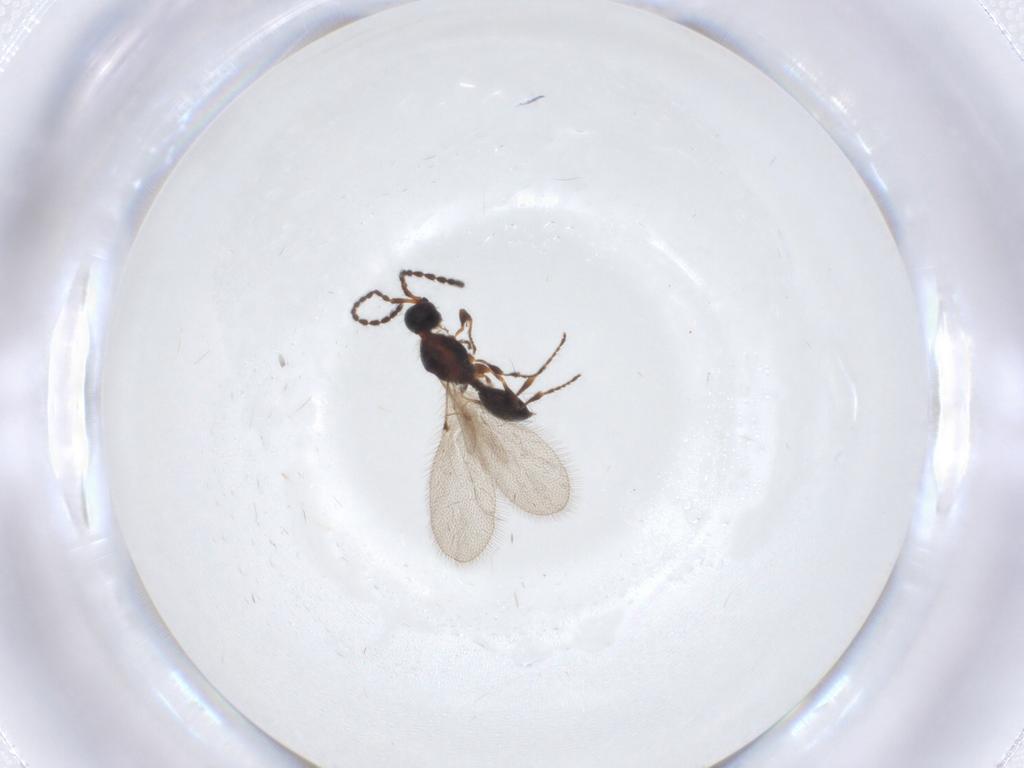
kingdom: Animalia
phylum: Arthropoda
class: Insecta
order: Hymenoptera
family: Diapriidae
